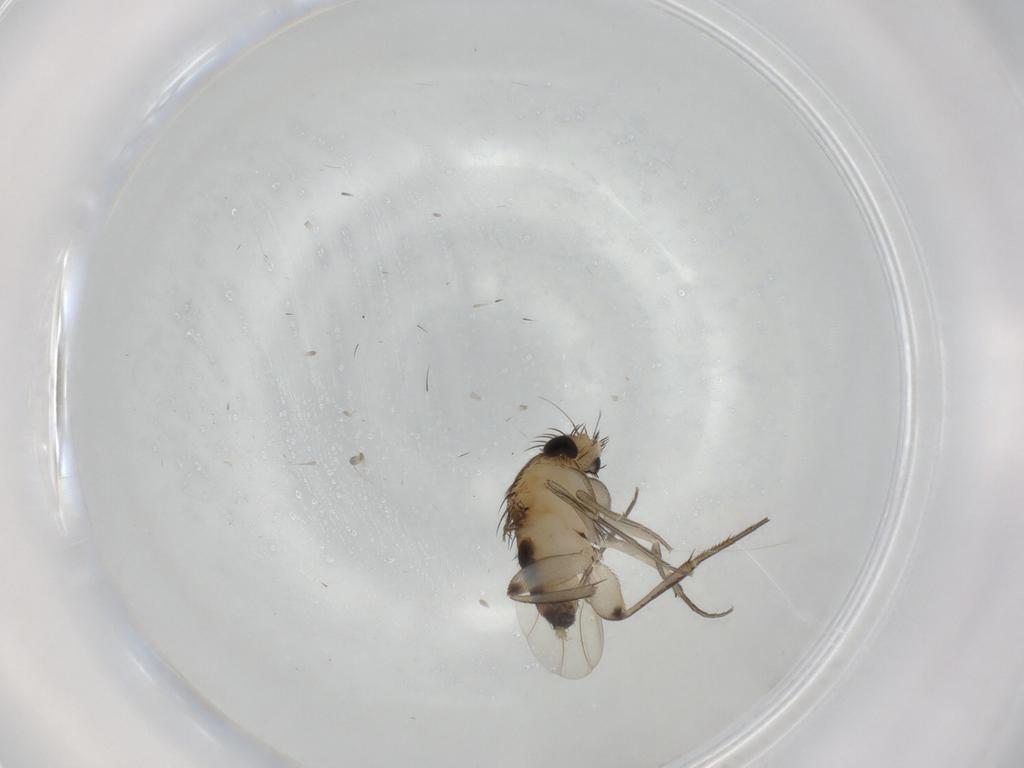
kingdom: Animalia
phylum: Arthropoda
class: Insecta
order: Diptera
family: Phoridae
